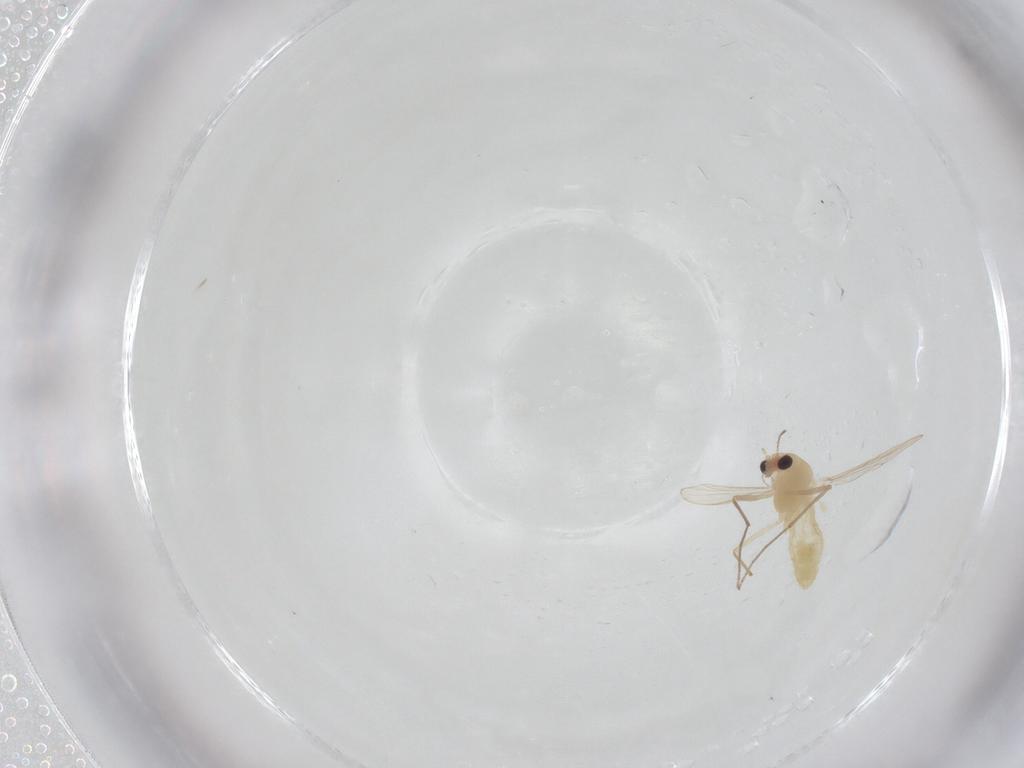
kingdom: Animalia
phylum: Arthropoda
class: Insecta
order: Diptera
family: Chironomidae
